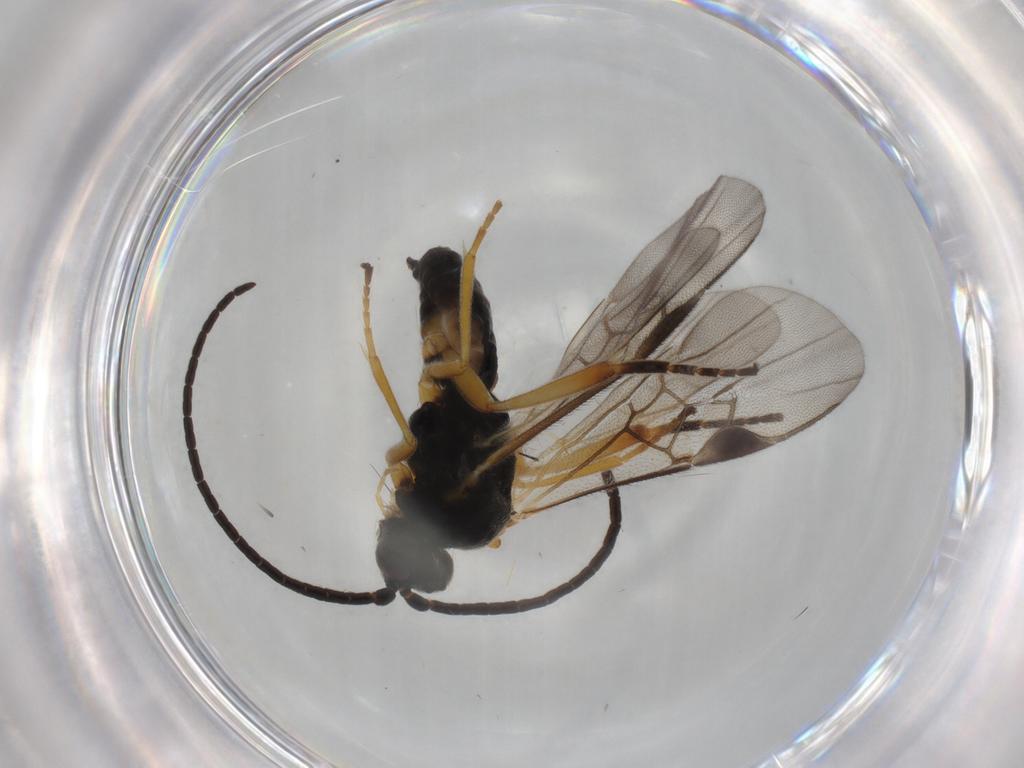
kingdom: Animalia
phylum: Arthropoda
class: Insecta
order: Hymenoptera
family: Braconidae
